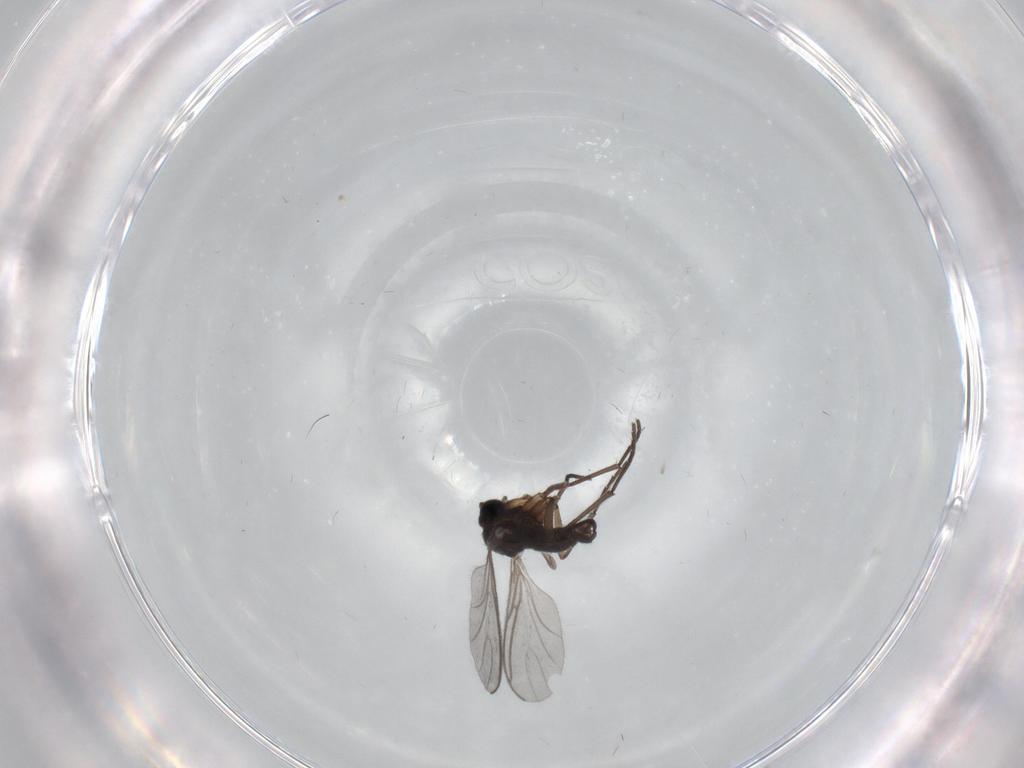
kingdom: Animalia
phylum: Arthropoda
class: Insecta
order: Diptera
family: Sciaridae
